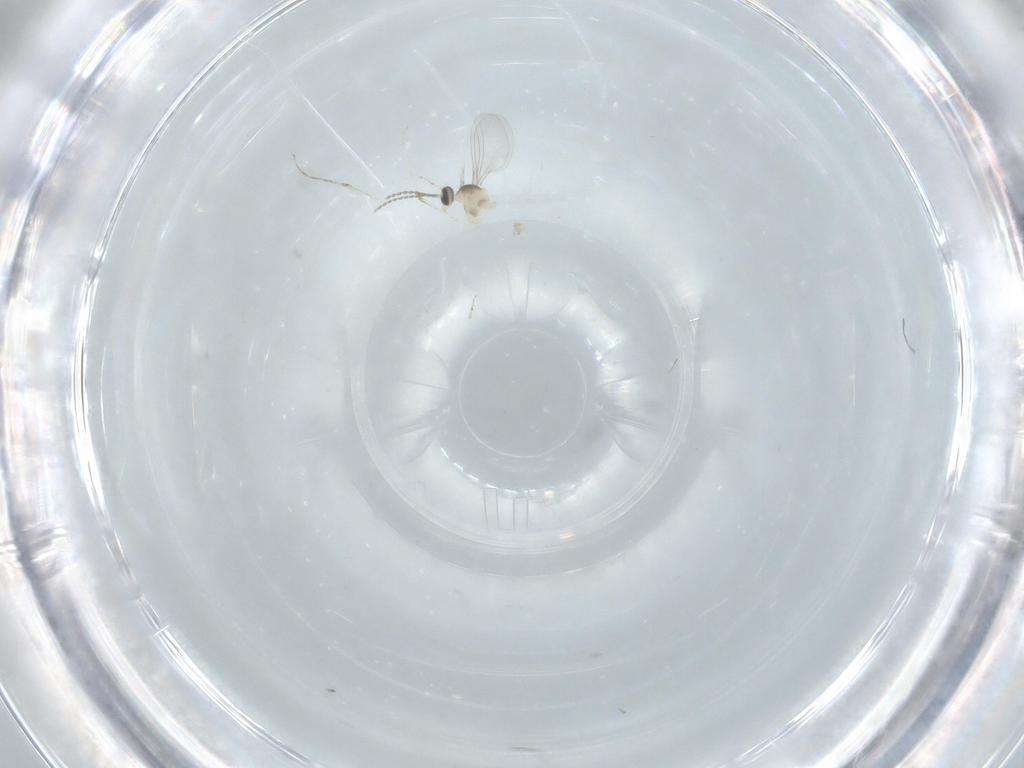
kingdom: Animalia
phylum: Arthropoda
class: Insecta
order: Diptera
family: Cecidomyiidae
